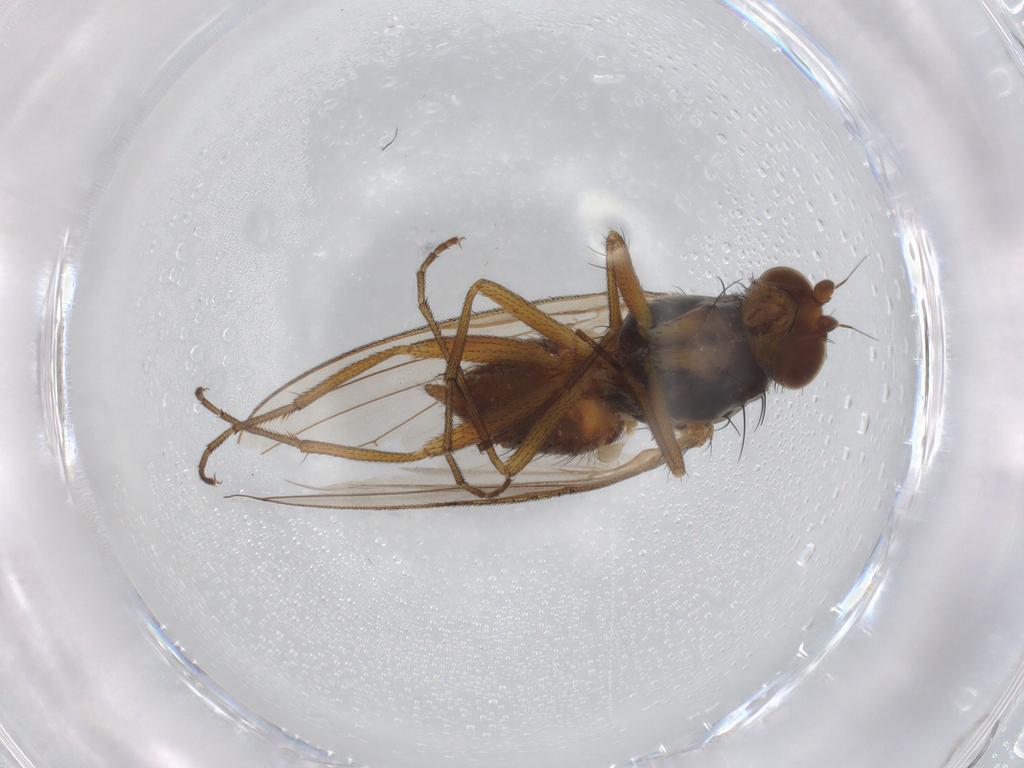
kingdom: Animalia
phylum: Arthropoda
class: Insecta
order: Diptera
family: Heleomyzidae
